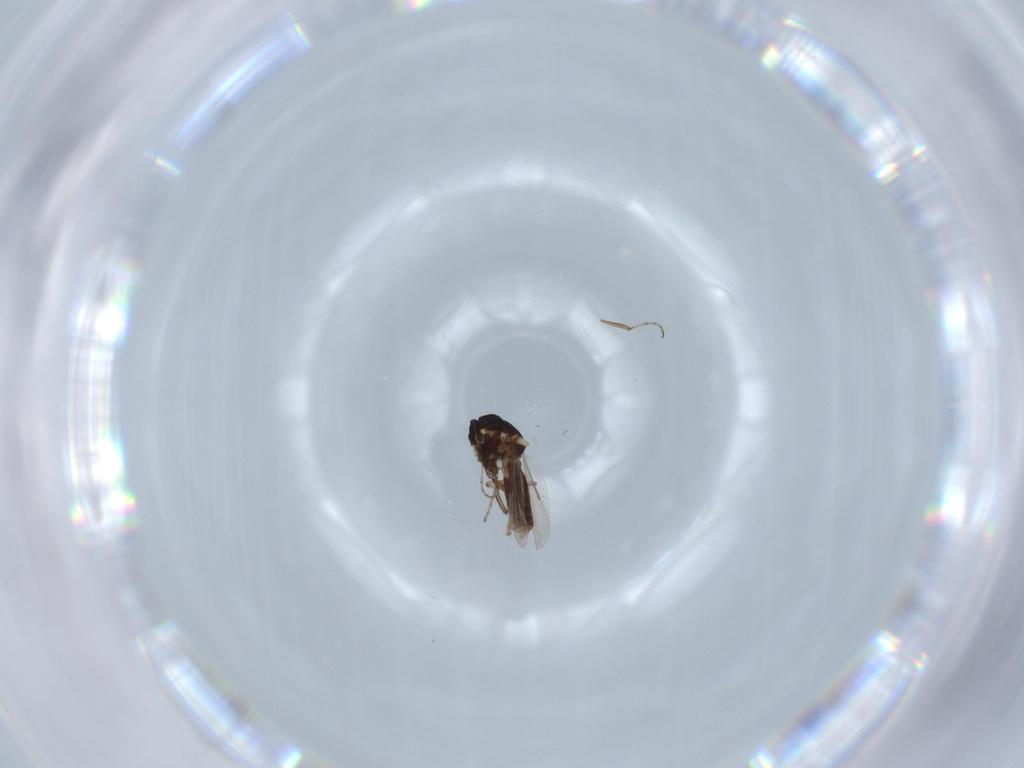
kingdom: Animalia
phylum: Arthropoda
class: Insecta
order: Diptera
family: Ceratopogonidae
